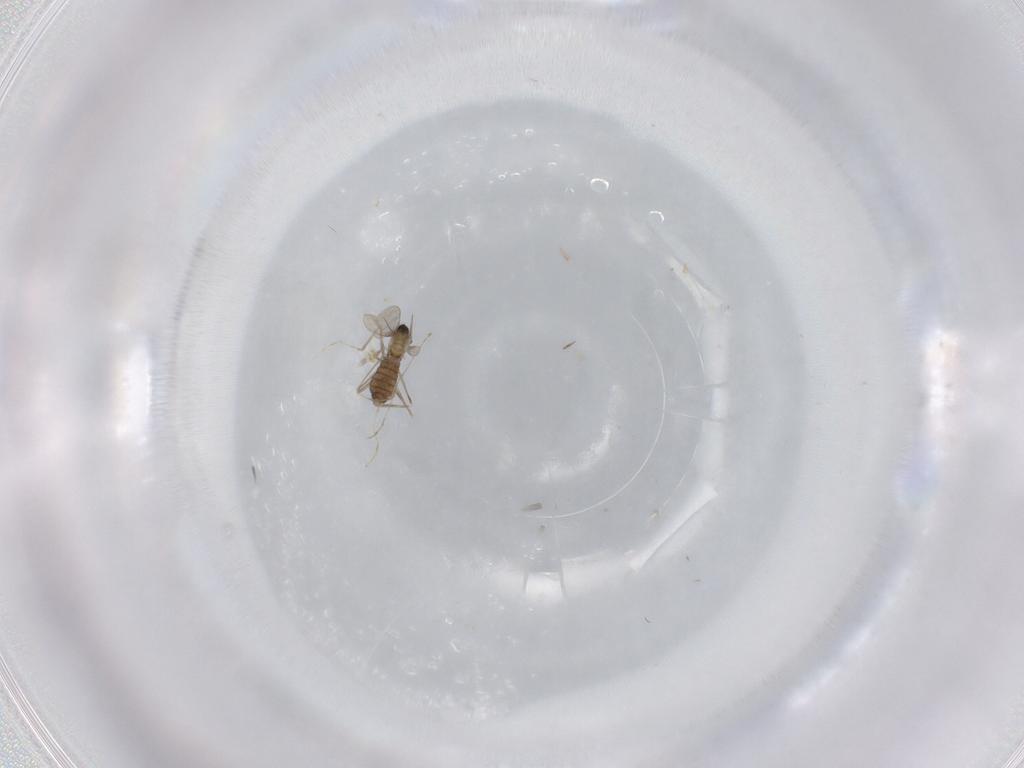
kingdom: Animalia
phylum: Arthropoda
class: Insecta
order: Diptera
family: Cecidomyiidae
